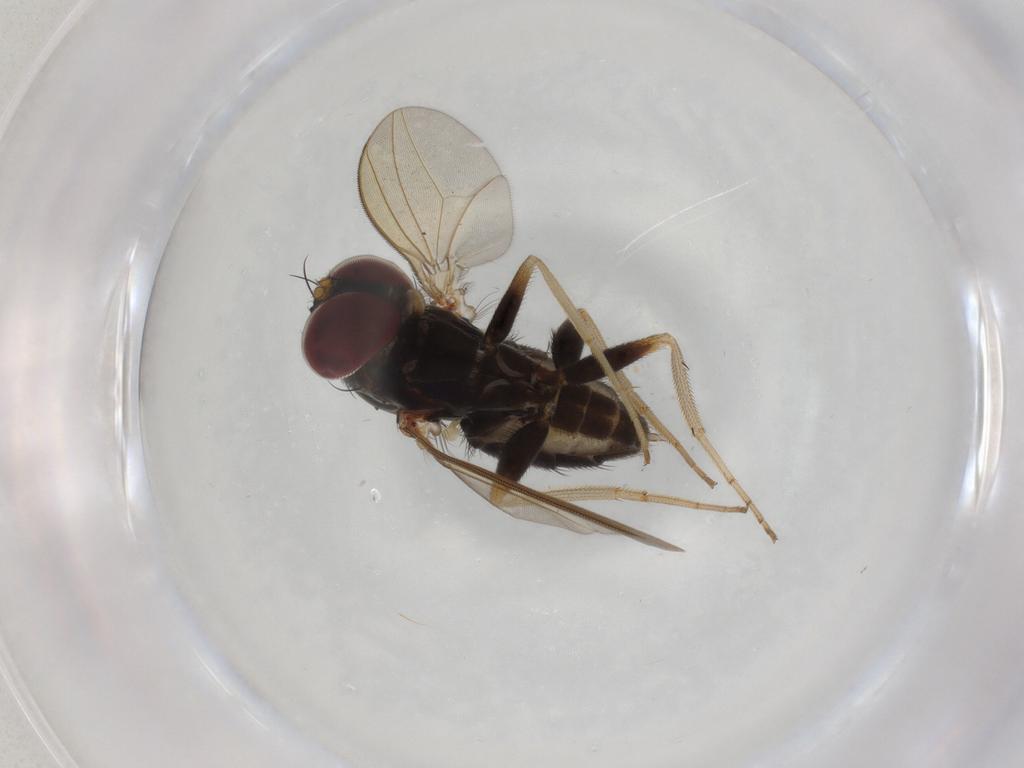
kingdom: Animalia
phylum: Arthropoda
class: Insecta
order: Diptera
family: Dolichopodidae
